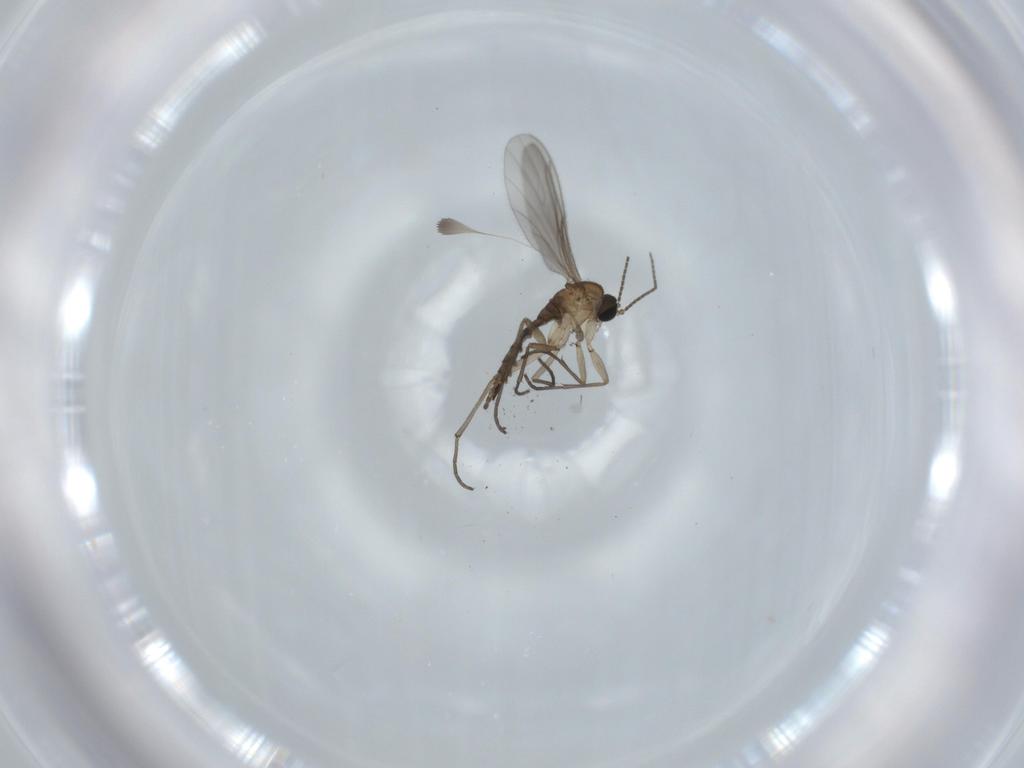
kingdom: Animalia
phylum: Arthropoda
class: Insecta
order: Diptera
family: Sciaridae
